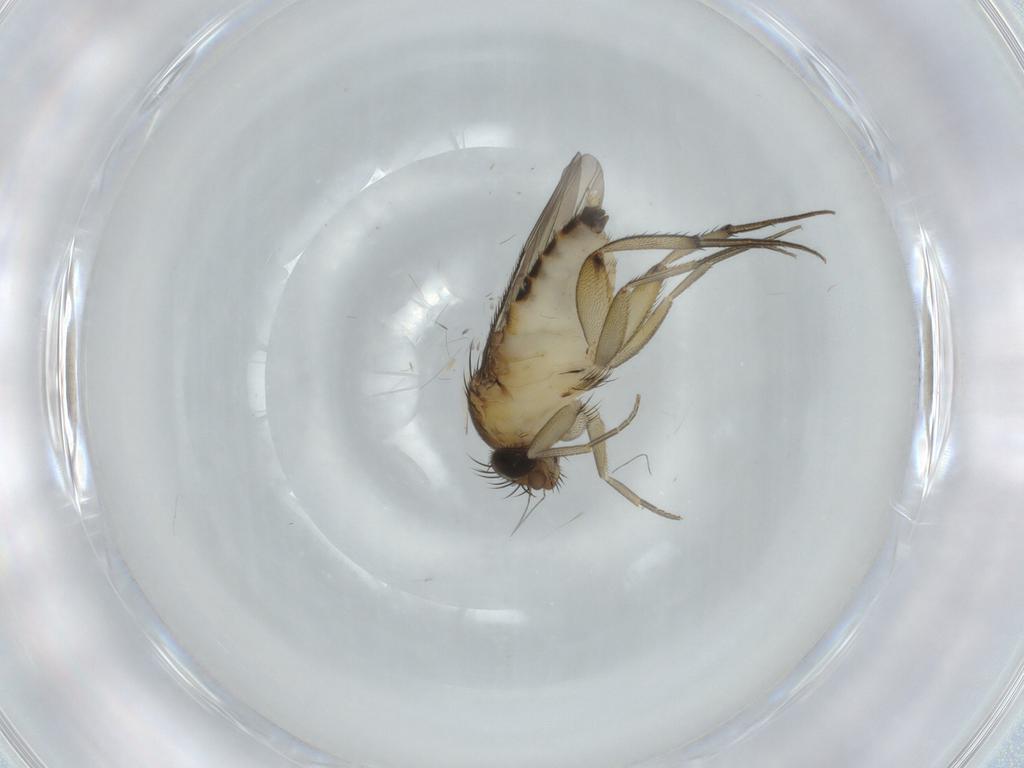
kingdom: Animalia
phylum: Arthropoda
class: Insecta
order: Diptera
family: Phoridae
